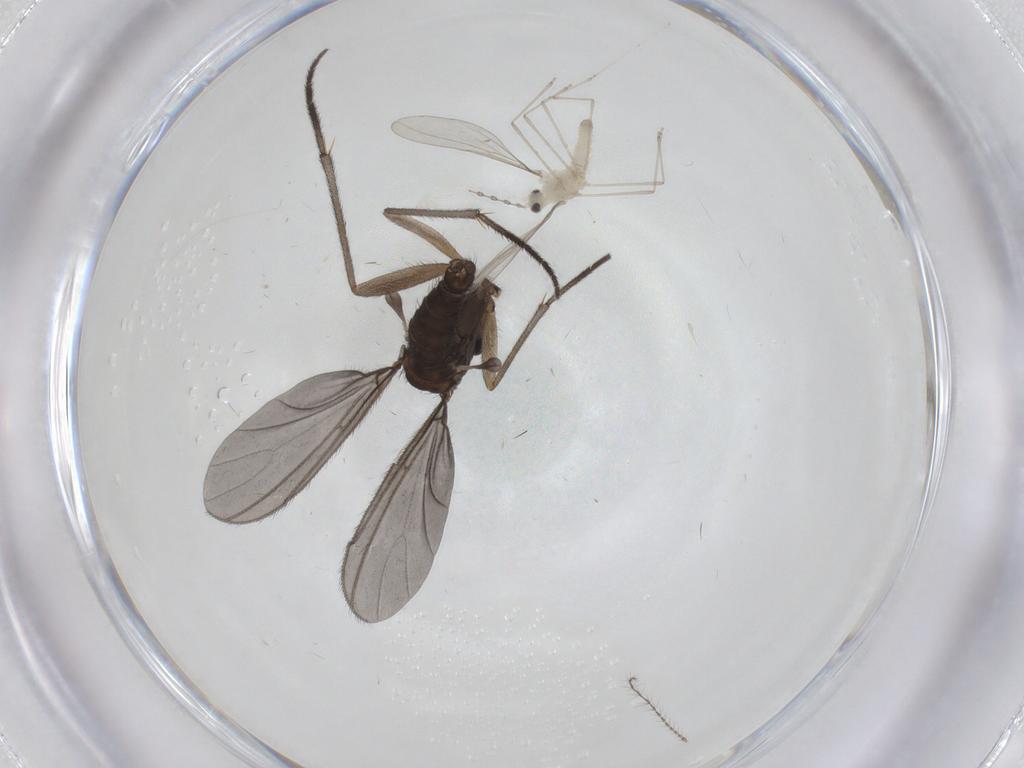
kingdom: Animalia
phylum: Arthropoda
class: Insecta
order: Diptera
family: Sciaridae
